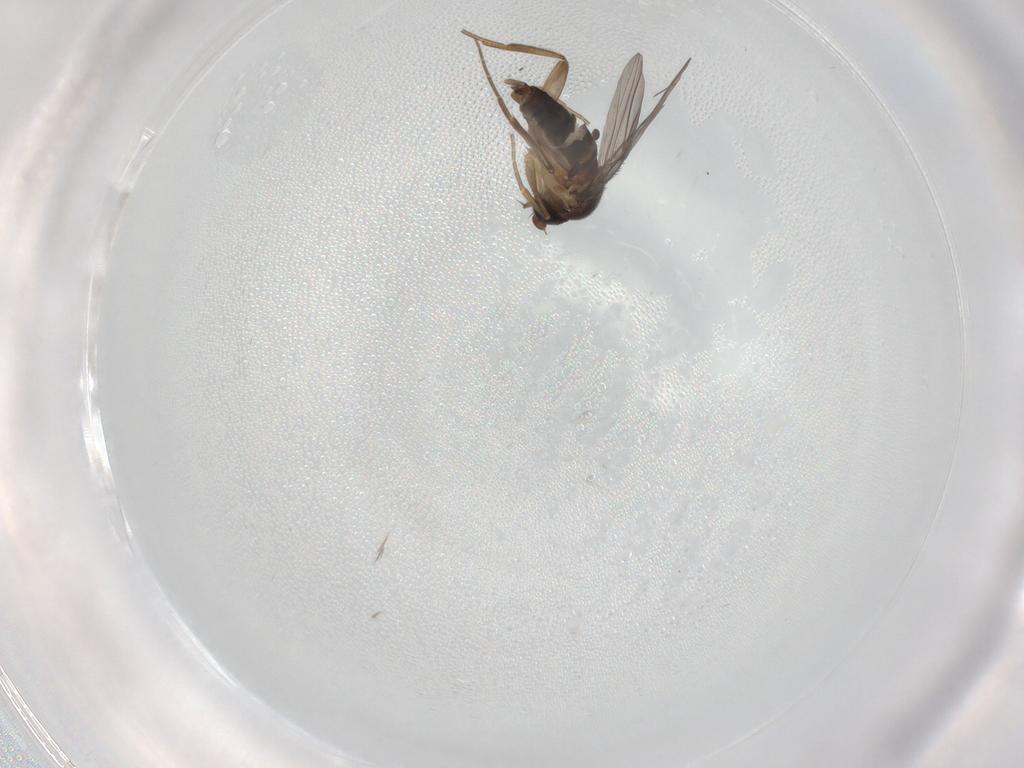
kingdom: Animalia
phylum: Arthropoda
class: Insecta
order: Diptera
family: Cecidomyiidae
